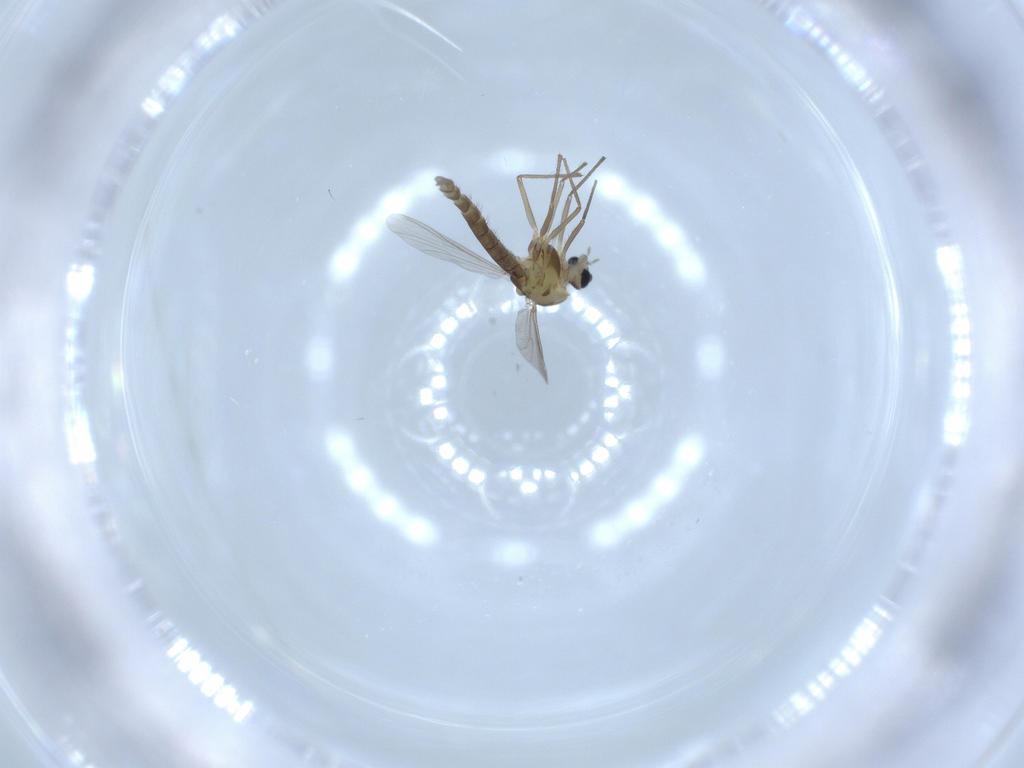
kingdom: Animalia
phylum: Arthropoda
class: Insecta
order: Diptera
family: Chironomidae
